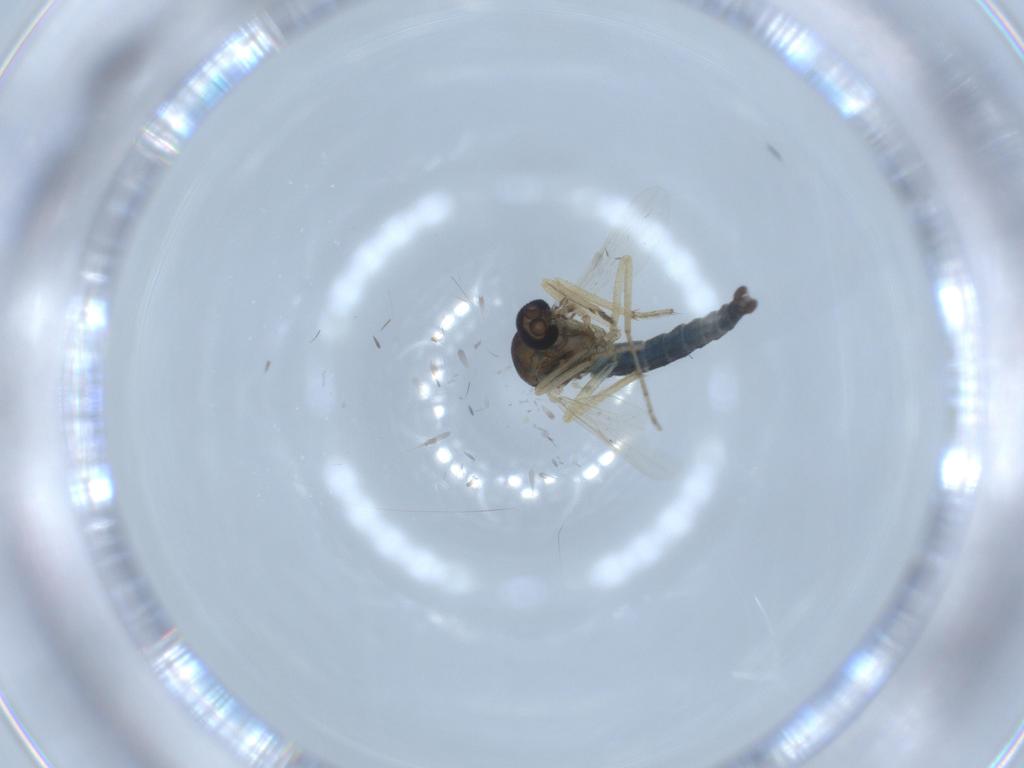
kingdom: Animalia
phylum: Arthropoda
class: Insecta
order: Diptera
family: Ceratopogonidae
